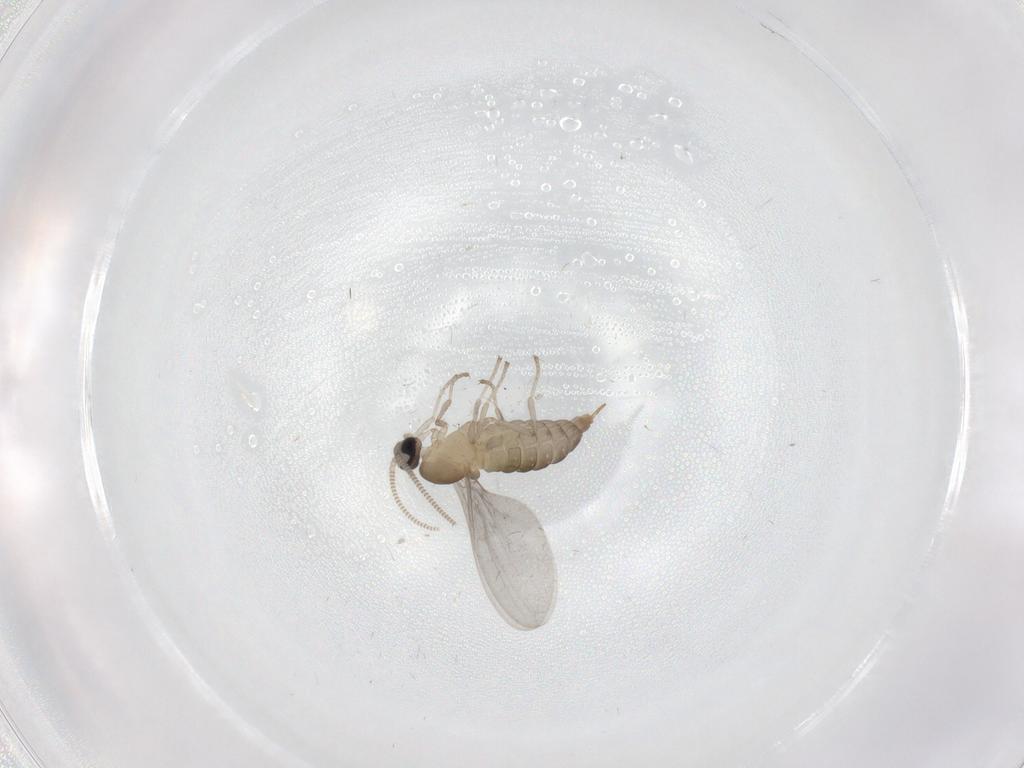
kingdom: Animalia
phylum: Arthropoda
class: Insecta
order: Diptera
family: Cecidomyiidae
